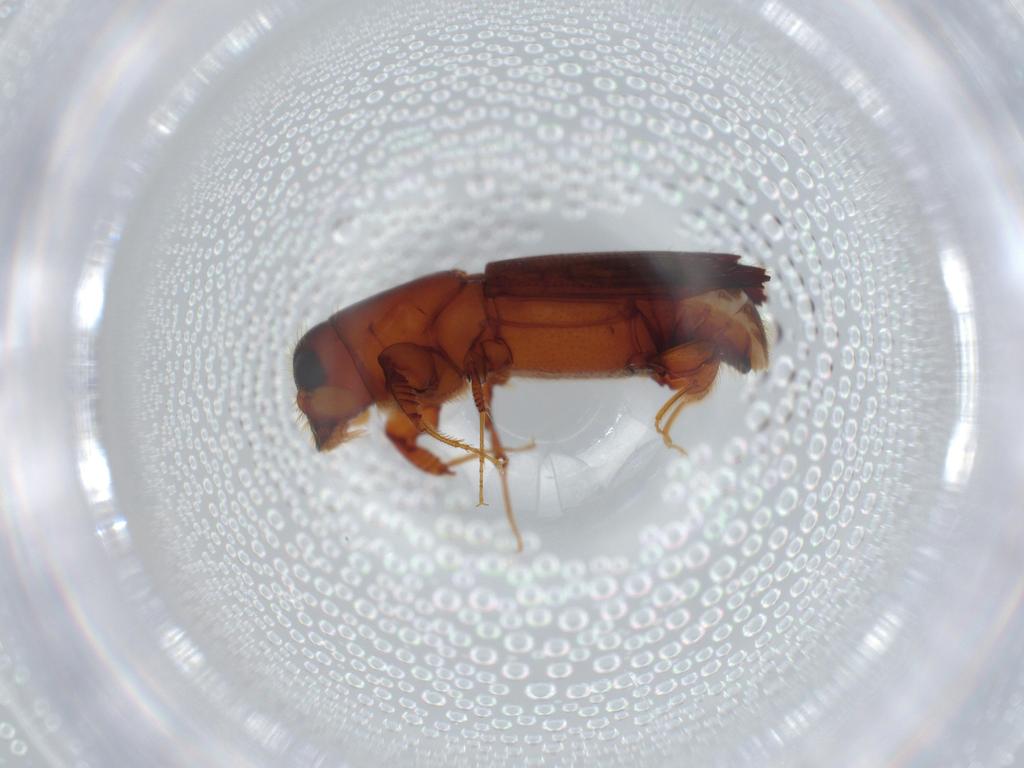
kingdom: Animalia
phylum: Arthropoda
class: Insecta
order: Coleoptera
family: Curculionidae
